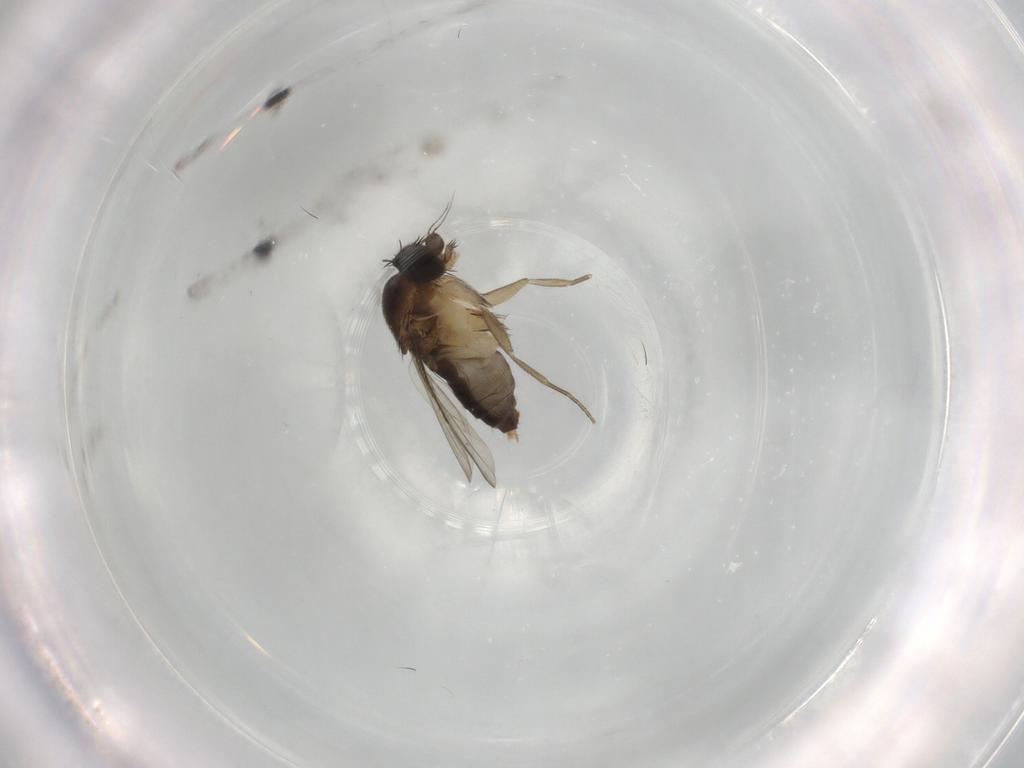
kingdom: Animalia
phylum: Arthropoda
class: Insecta
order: Diptera
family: Phoridae
